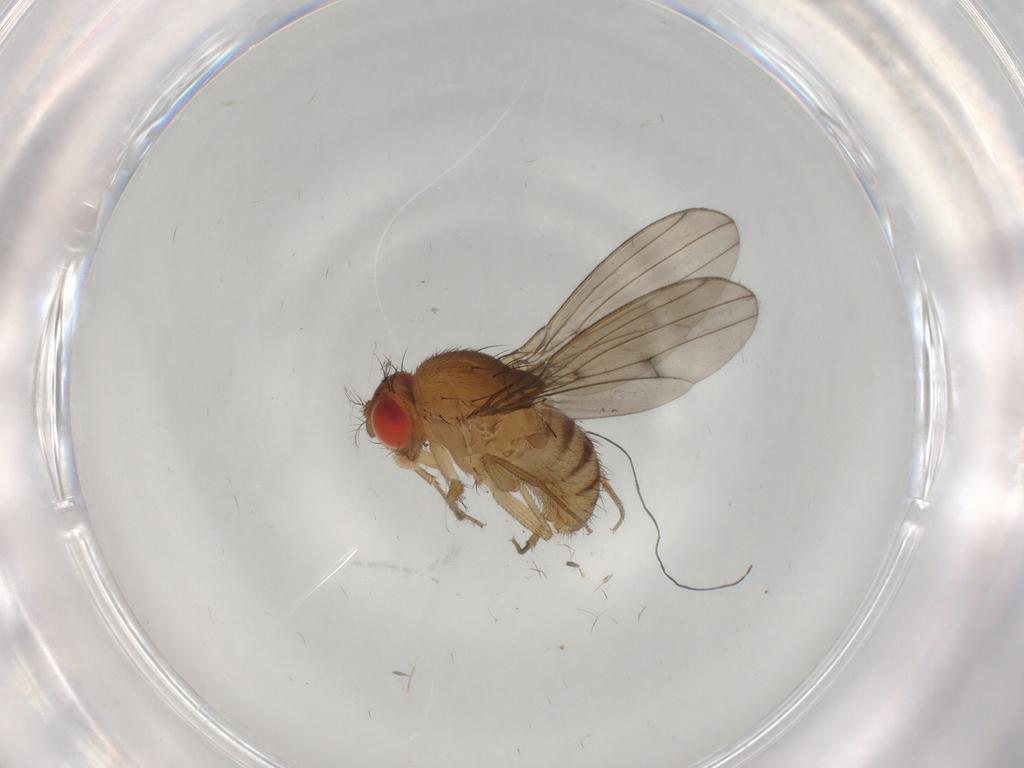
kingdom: Animalia
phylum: Arthropoda
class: Insecta
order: Diptera
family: Drosophilidae
